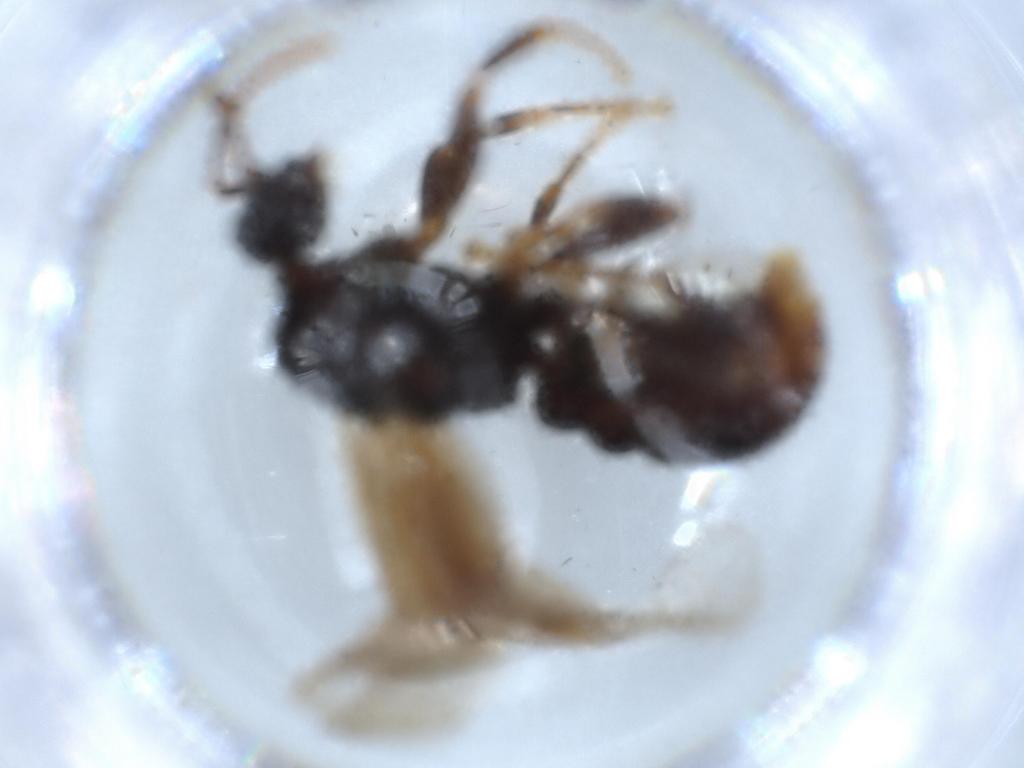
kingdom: Animalia
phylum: Arthropoda
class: Insecta
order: Hymenoptera
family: Formicidae
